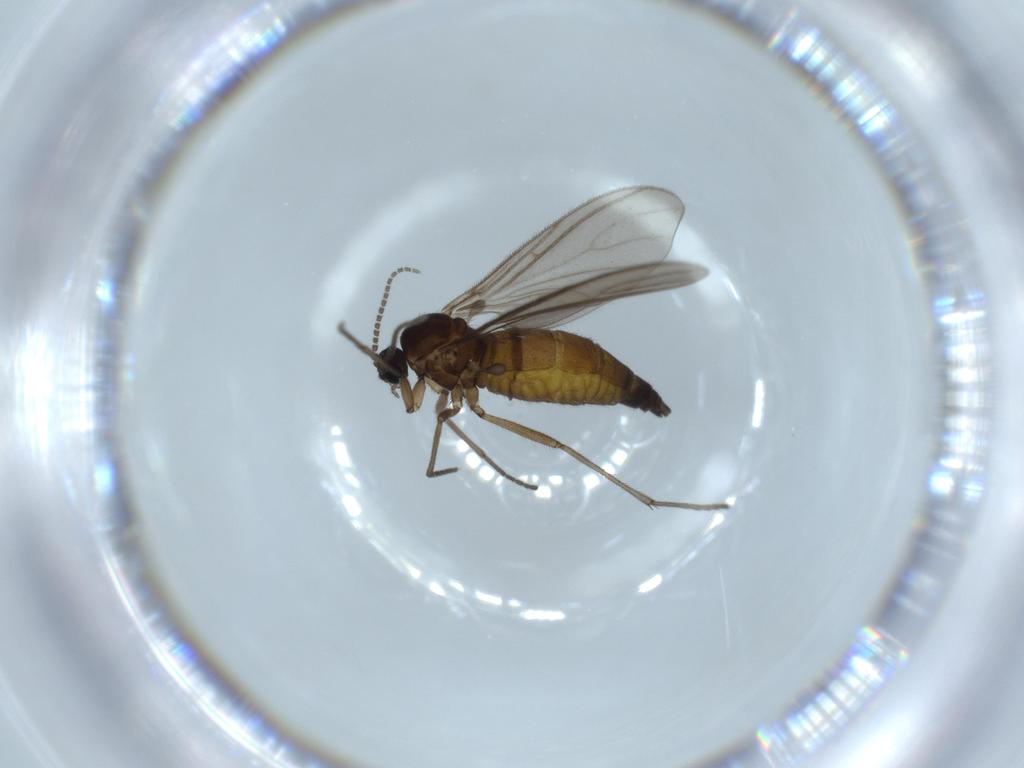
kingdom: Animalia
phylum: Arthropoda
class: Insecta
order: Diptera
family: Sciaridae
